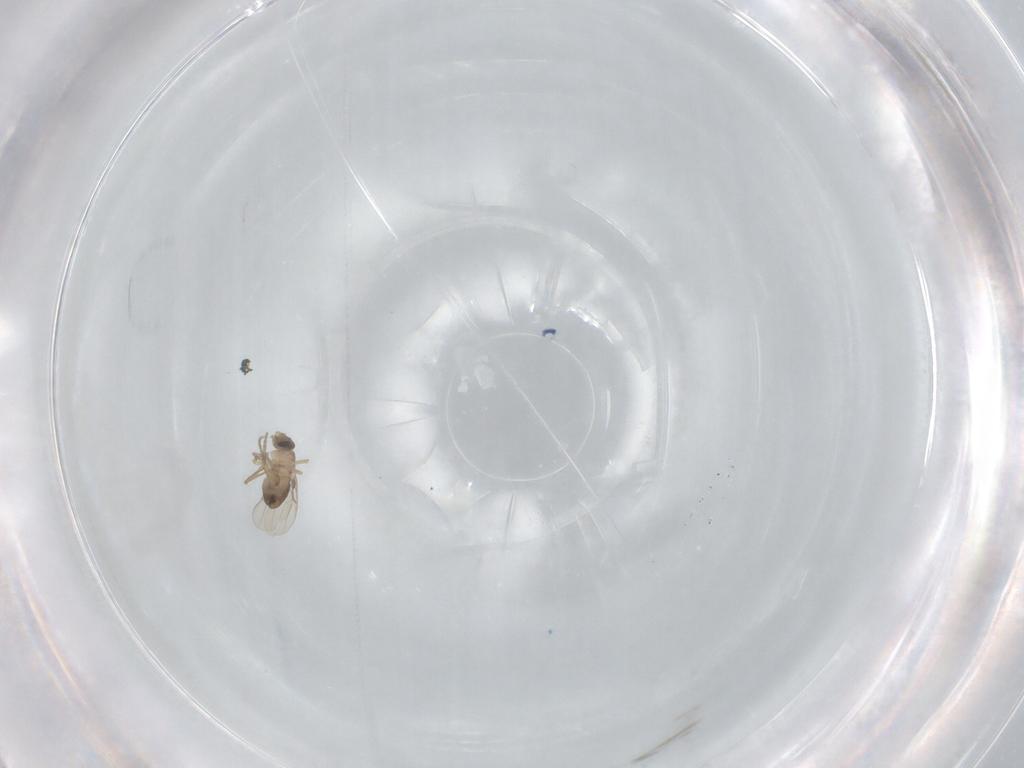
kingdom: Animalia
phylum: Arthropoda
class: Insecta
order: Diptera
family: Phoridae
